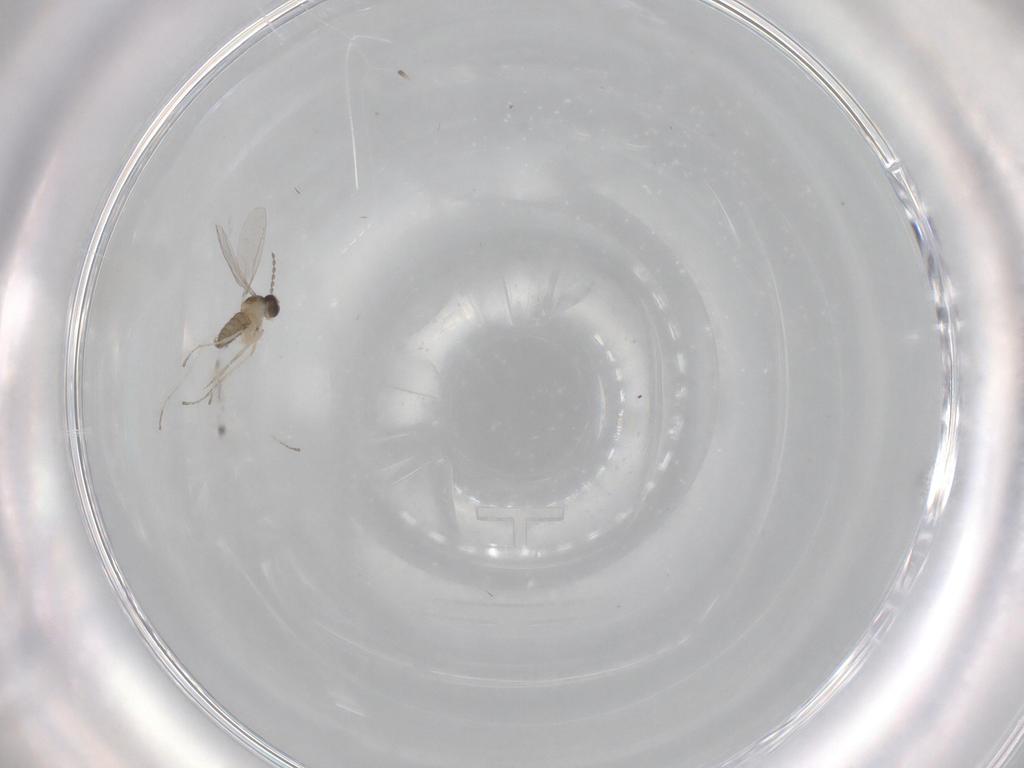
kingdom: Animalia
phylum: Arthropoda
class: Insecta
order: Diptera
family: Cecidomyiidae
